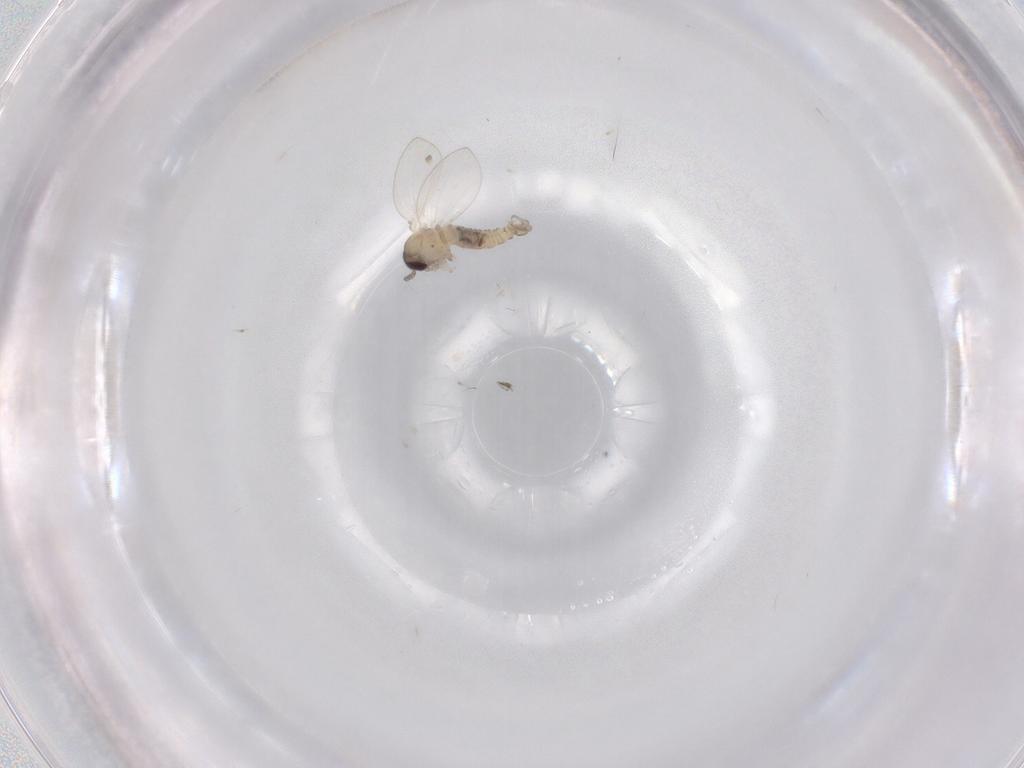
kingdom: Animalia
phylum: Arthropoda
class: Insecta
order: Diptera
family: Psychodidae
